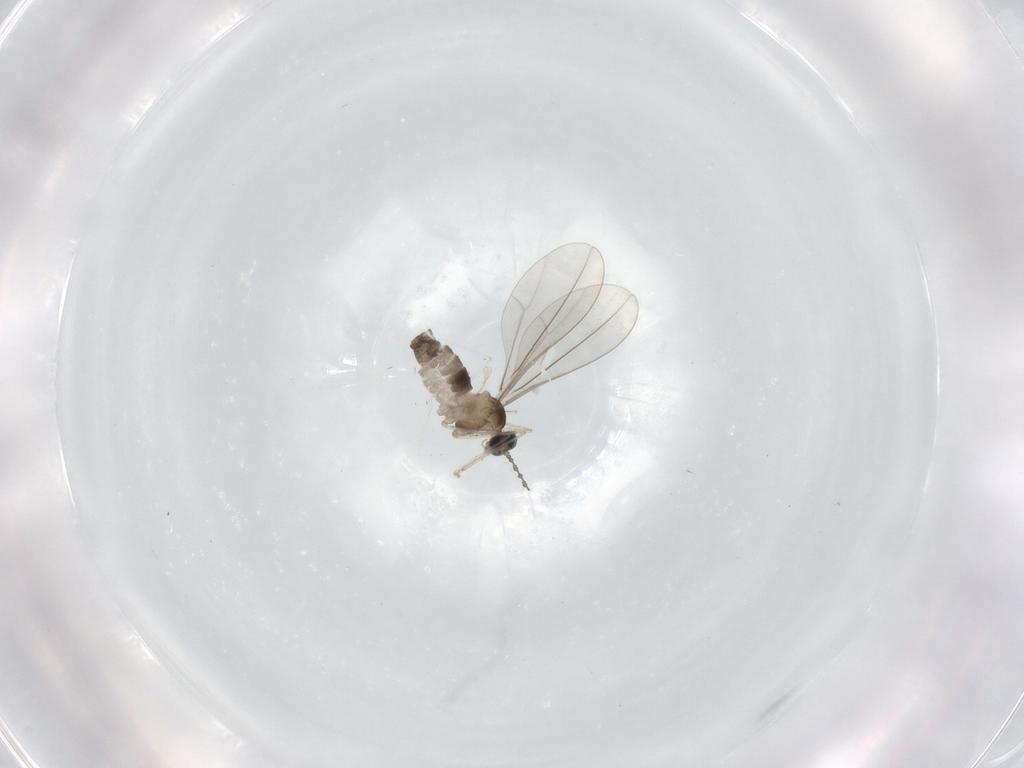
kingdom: Animalia
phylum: Arthropoda
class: Insecta
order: Diptera
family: Cecidomyiidae
